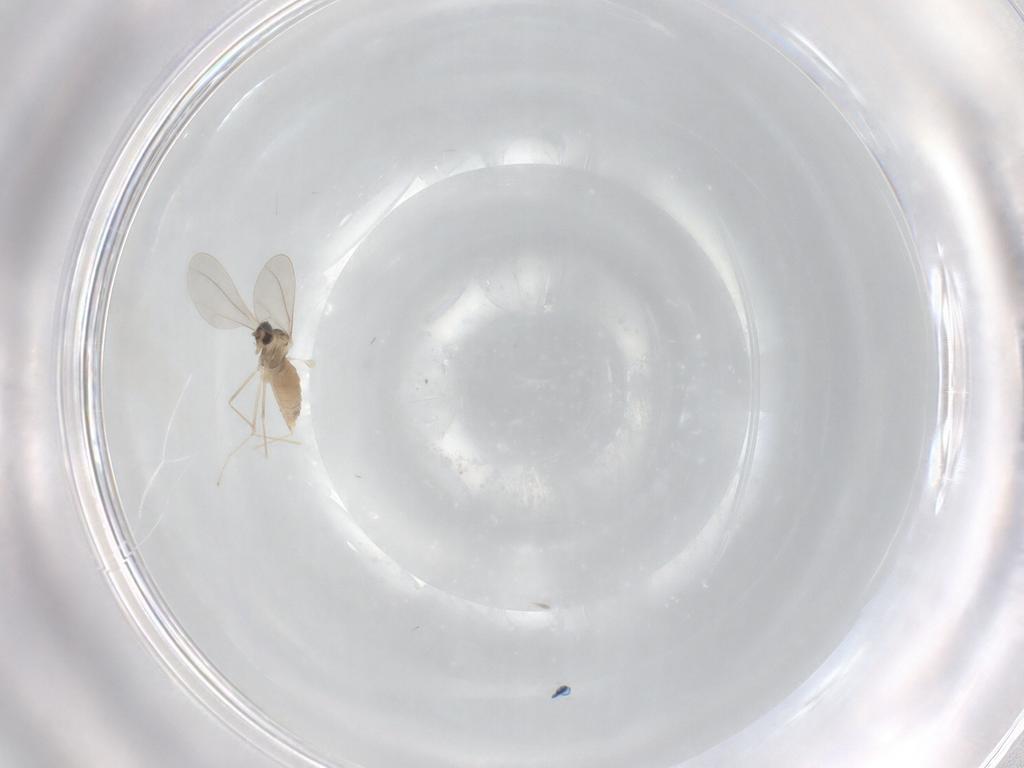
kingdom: Animalia
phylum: Arthropoda
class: Insecta
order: Diptera
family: Cecidomyiidae
